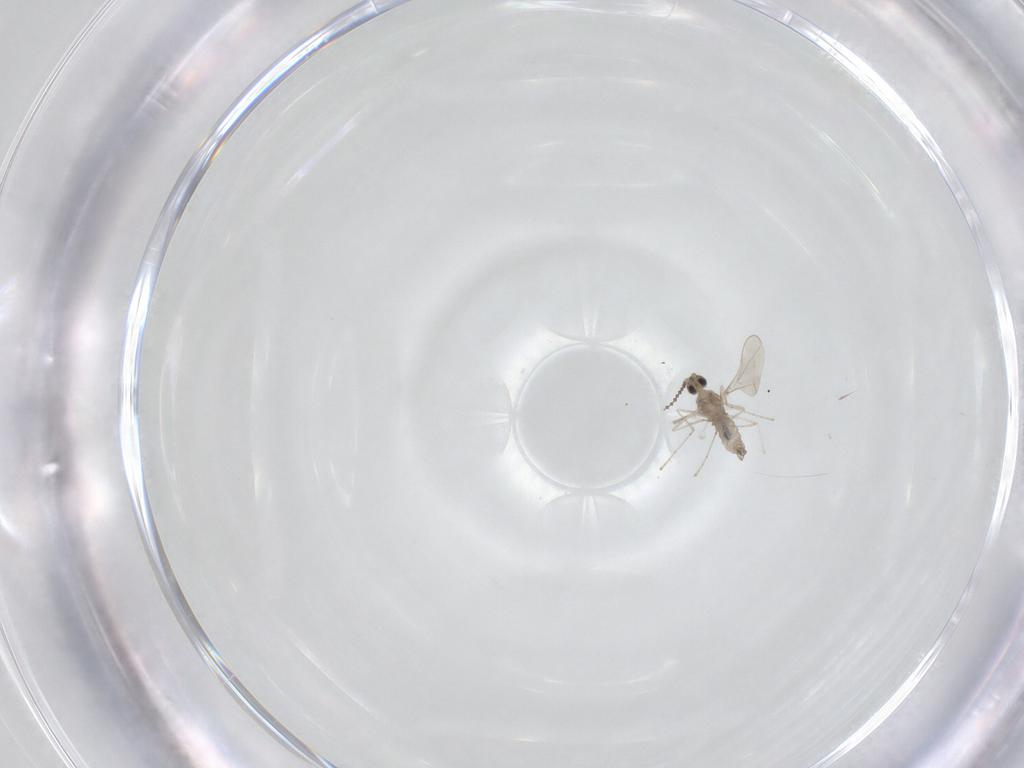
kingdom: Animalia
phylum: Arthropoda
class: Insecta
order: Diptera
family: Cecidomyiidae
